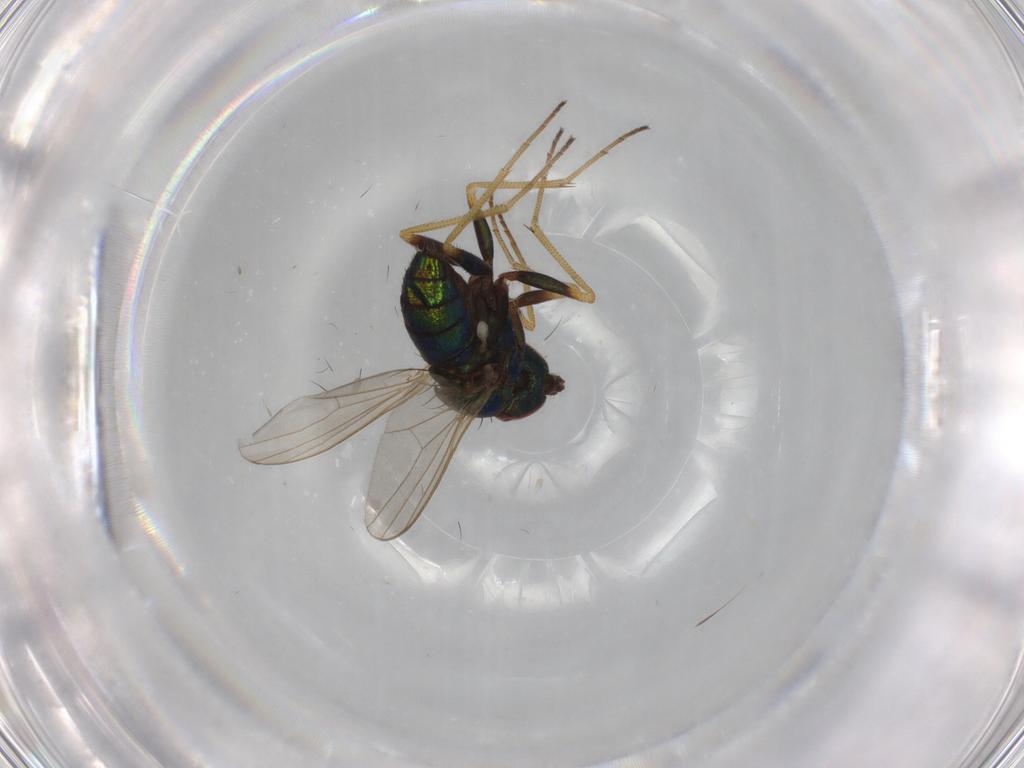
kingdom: Animalia
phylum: Arthropoda
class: Insecta
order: Diptera
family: Dolichopodidae
